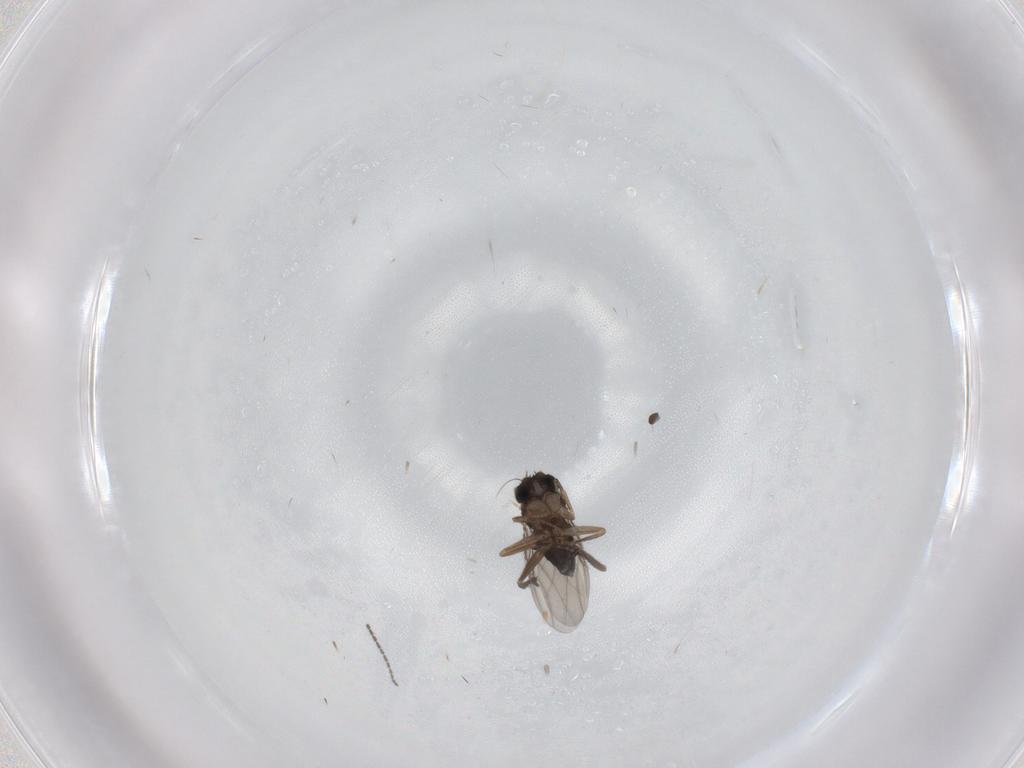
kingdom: Animalia
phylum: Arthropoda
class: Insecta
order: Diptera
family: Phoridae
